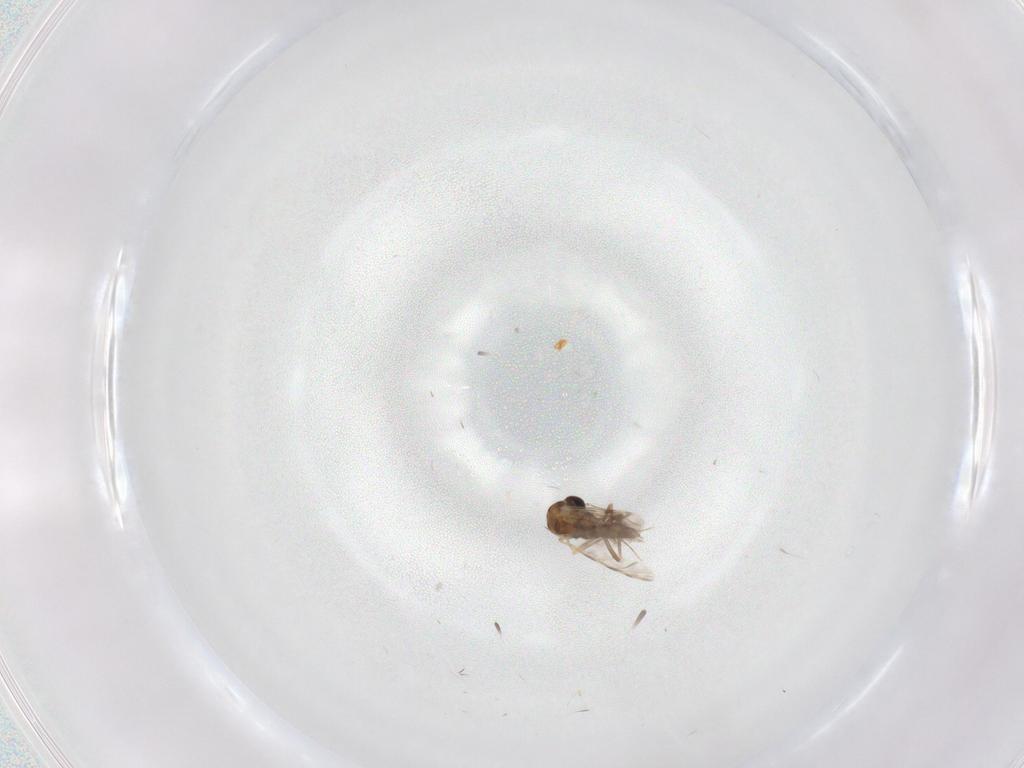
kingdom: Animalia
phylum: Arthropoda
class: Insecta
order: Diptera
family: Ceratopogonidae
